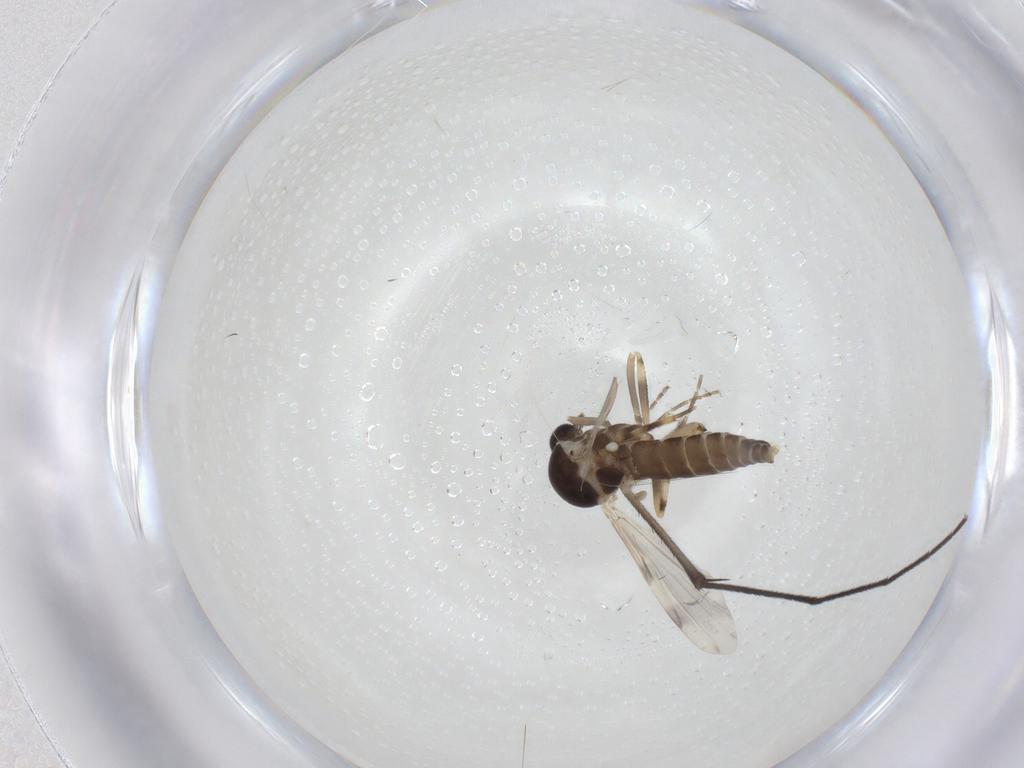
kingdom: Animalia
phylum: Arthropoda
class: Insecta
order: Diptera
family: Ceratopogonidae
